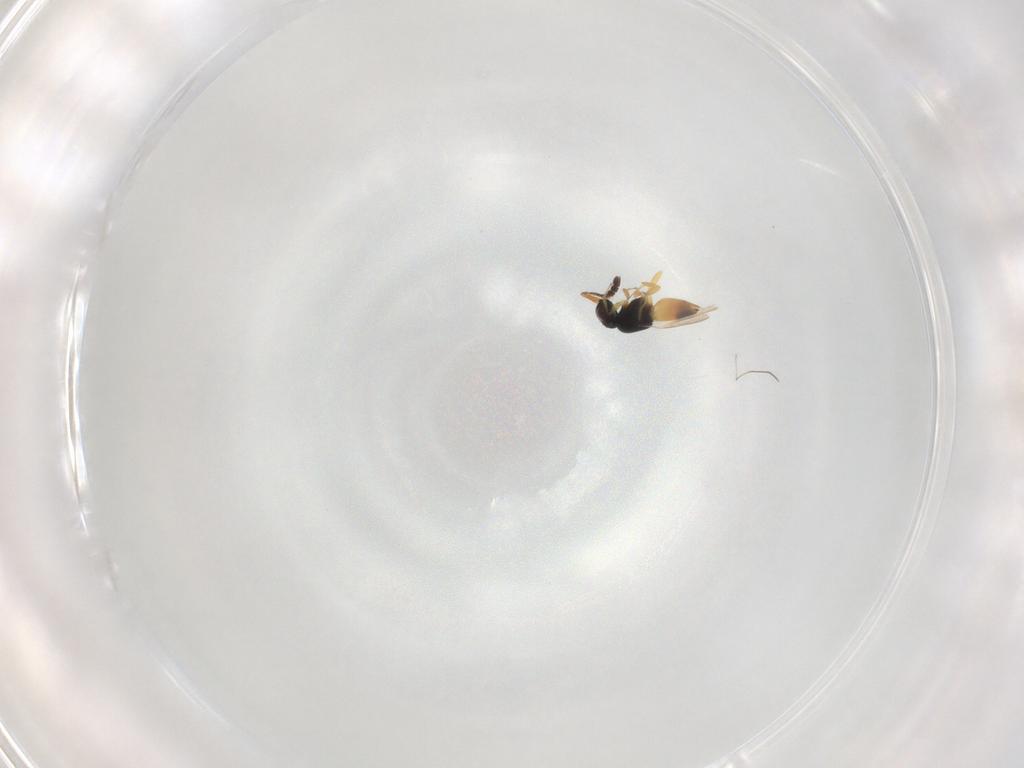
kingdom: Animalia
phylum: Arthropoda
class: Insecta
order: Hymenoptera
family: Ceraphronidae
